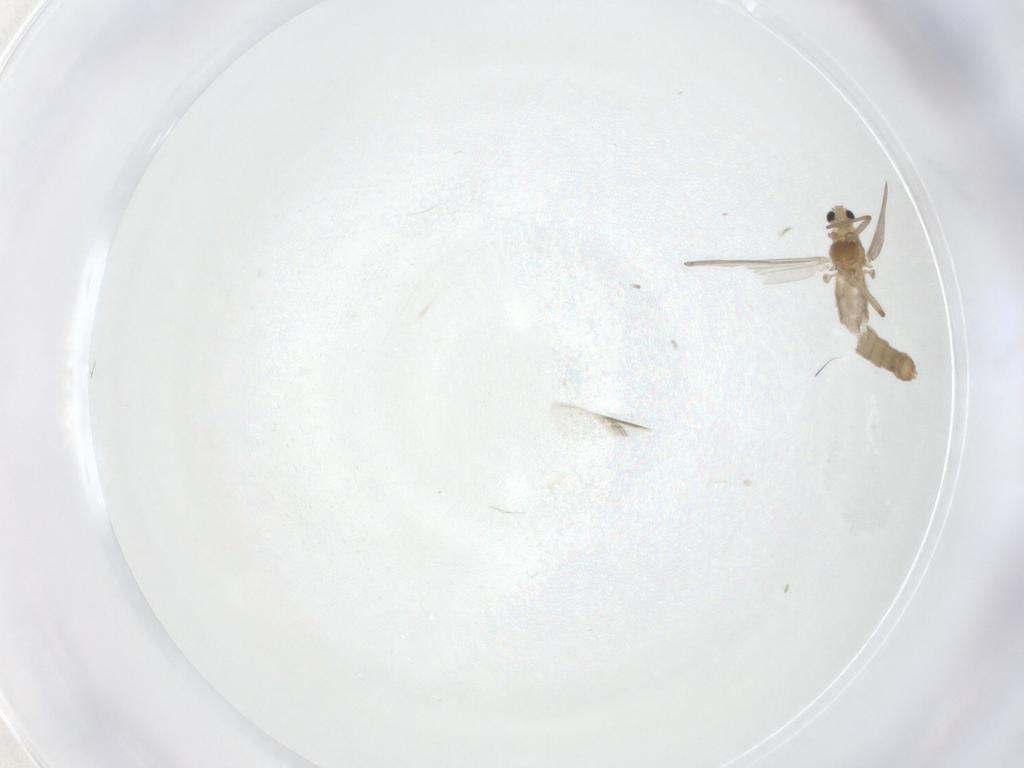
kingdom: Animalia
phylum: Arthropoda
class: Insecta
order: Diptera
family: Chironomidae
